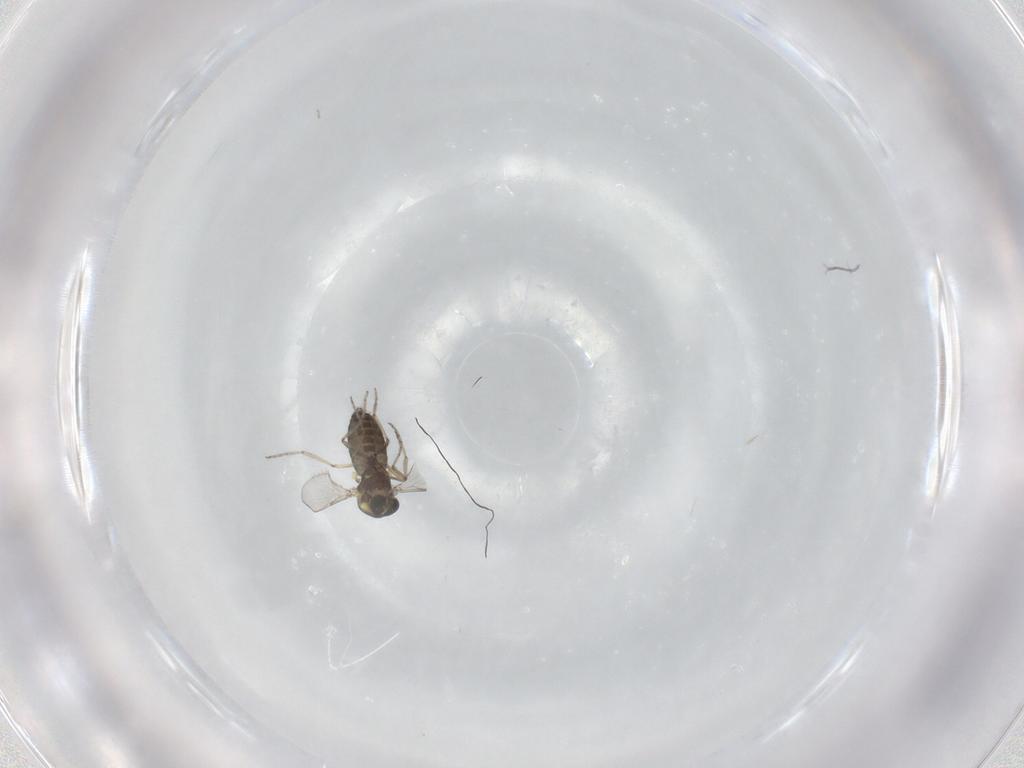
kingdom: Animalia
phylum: Arthropoda
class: Insecta
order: Diptera
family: Ceratopogonidae
